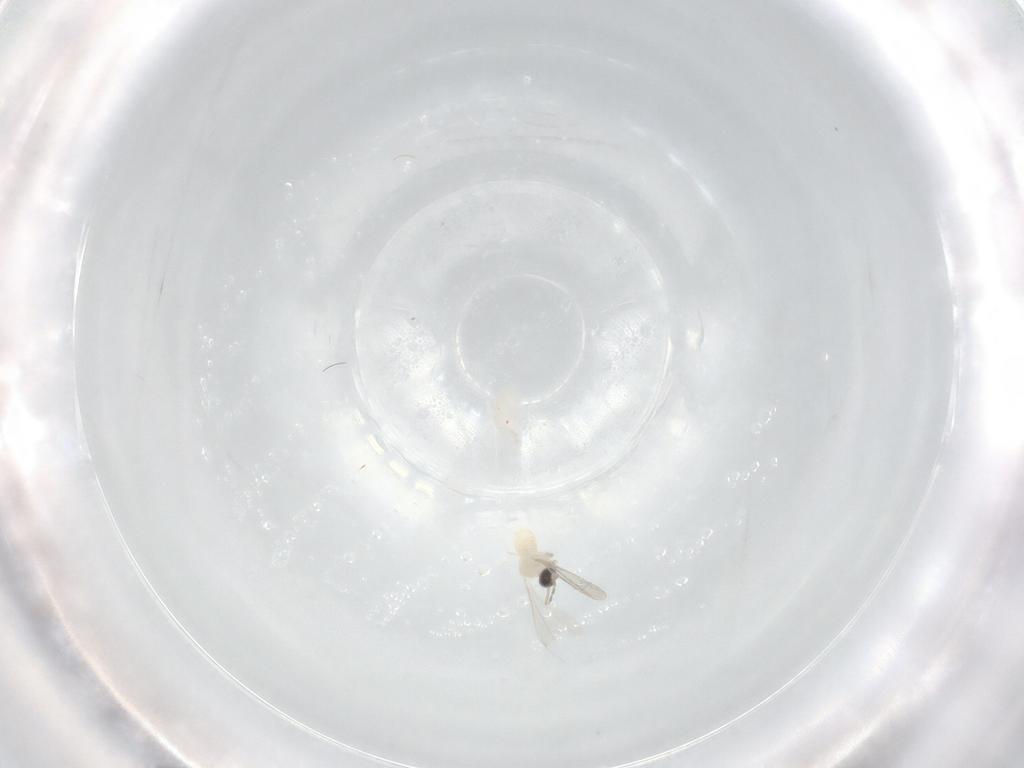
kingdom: Animalia
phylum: Arthropoda
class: Insecta
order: Diptera
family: Cecidomyiidae
